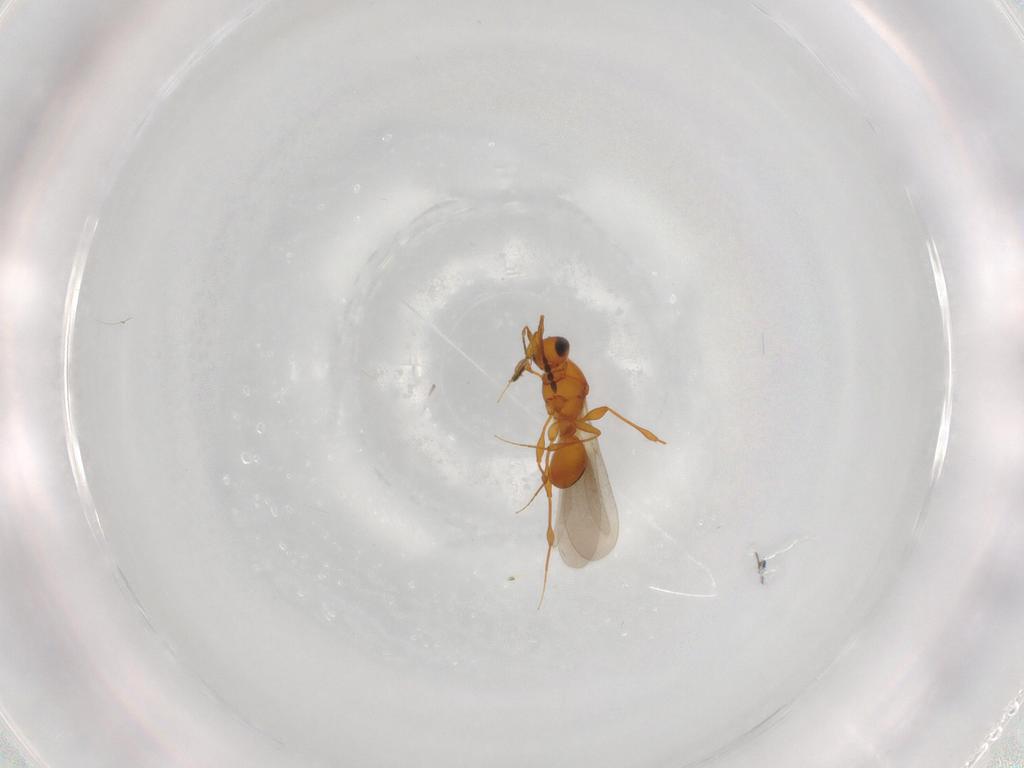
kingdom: Animalia
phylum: Arthropoda
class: Insecta
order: Hymenoptera
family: Platygastridae
